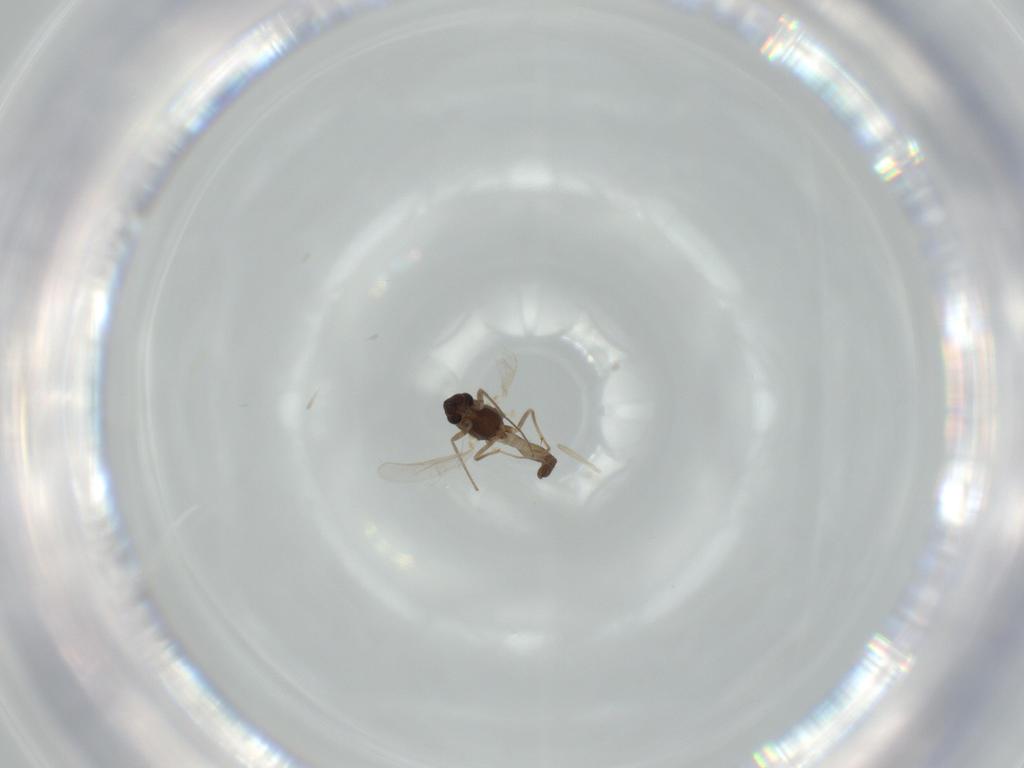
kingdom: Animalia
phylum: Arthropoda
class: Insecta
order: Diptera
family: Chironomidae
